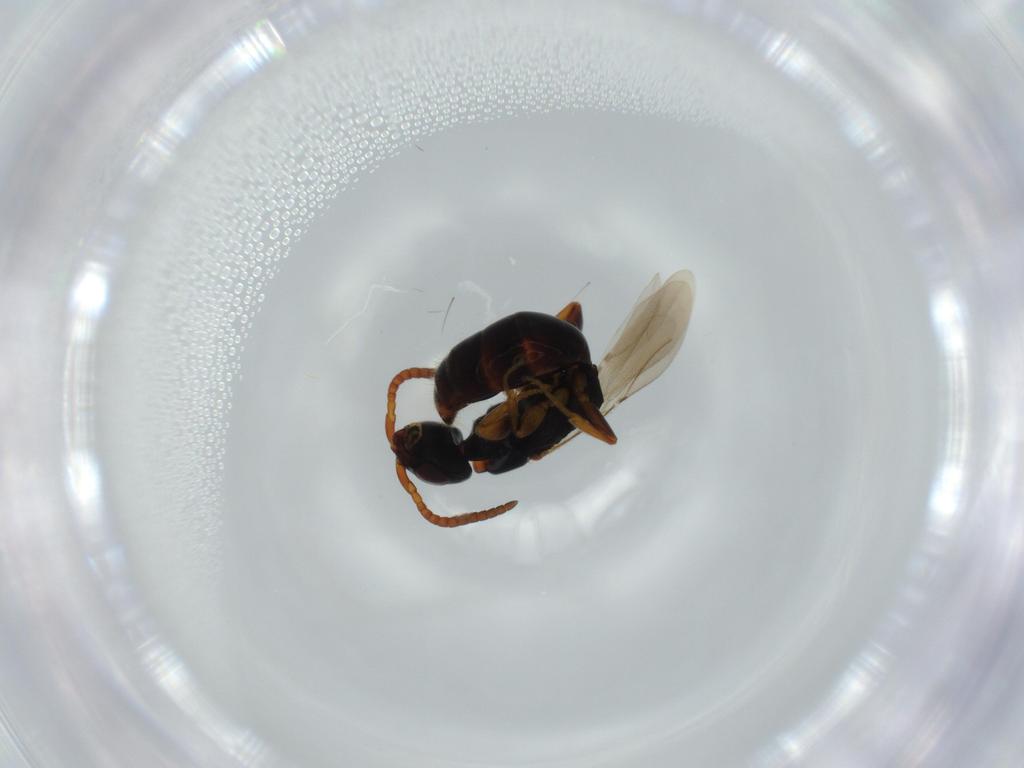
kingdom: Animalia
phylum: Arthropoda
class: Insecta
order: Hymenoptera
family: Bethylidae
